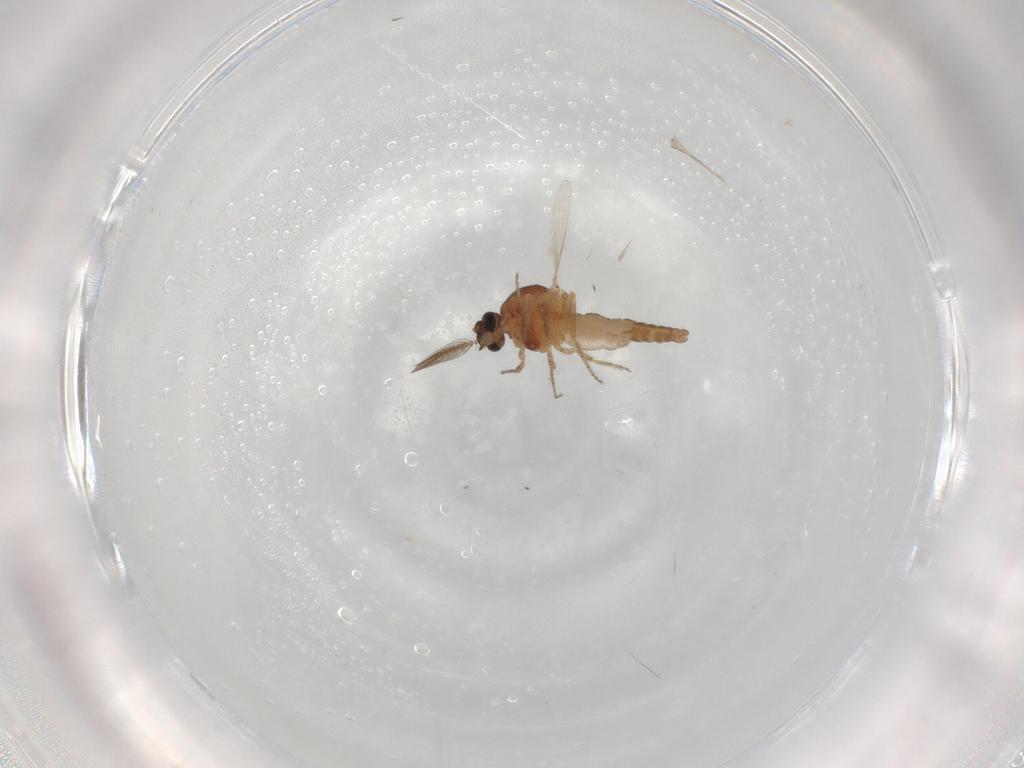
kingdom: Animalia
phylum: Arthropoda
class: Insecta
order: Diptera
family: Ceratopogonidae
